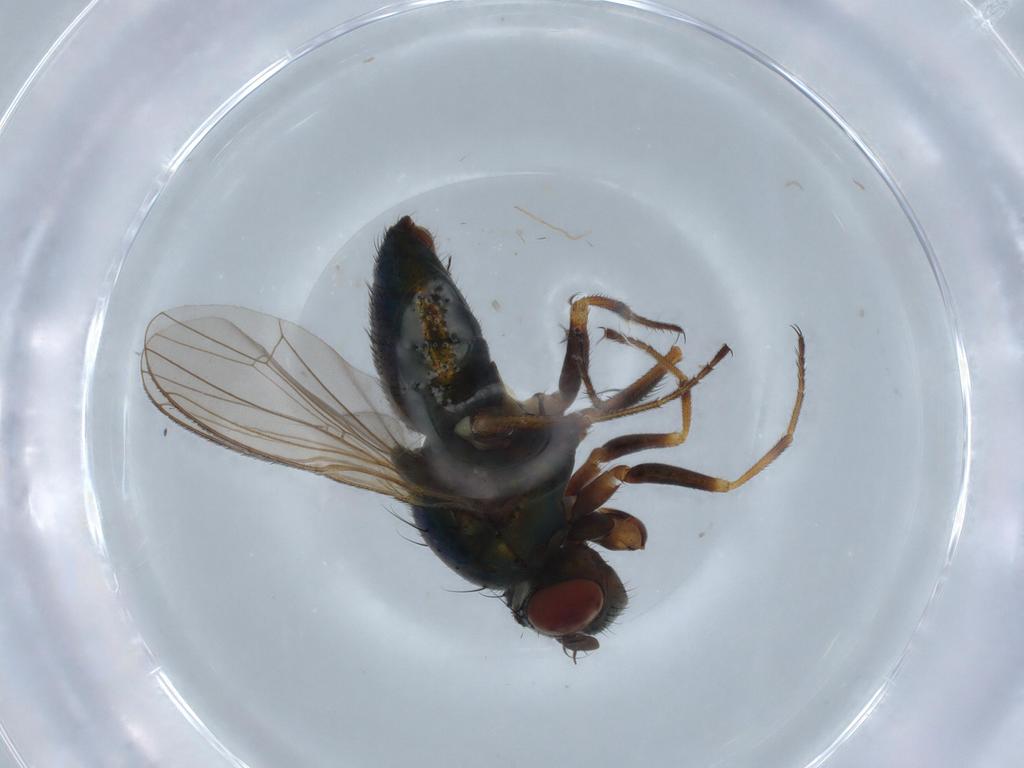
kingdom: Animalia
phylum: Arthropoda
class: Insecta
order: Diptera
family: Ephydridae
